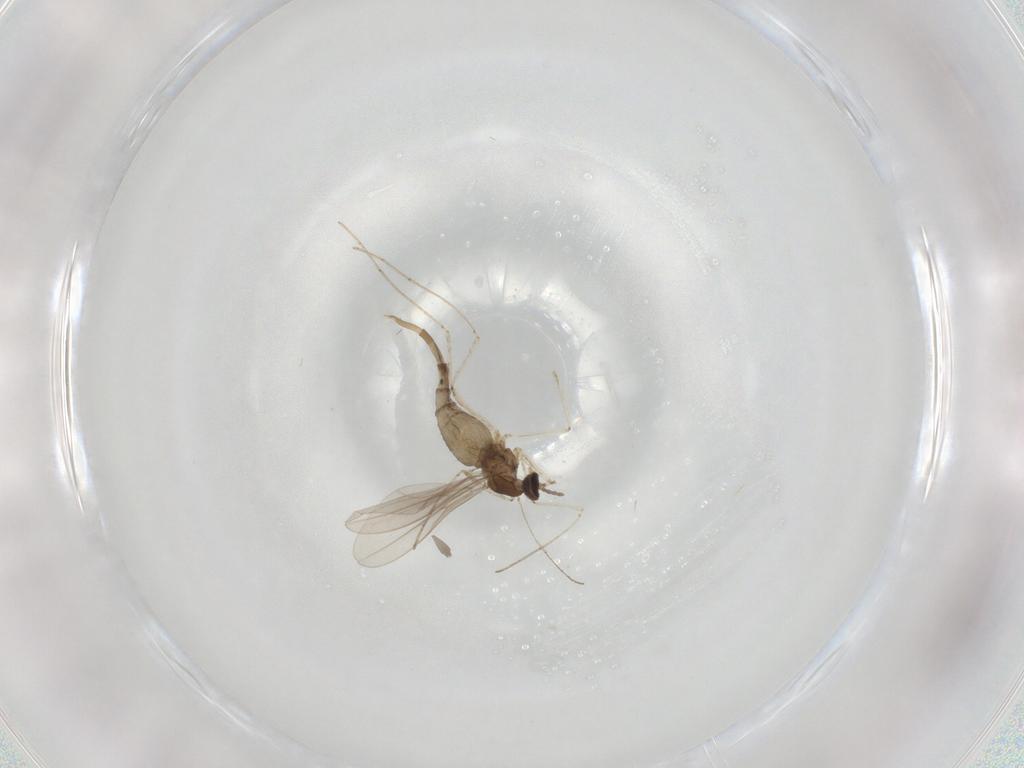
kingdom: Animalia
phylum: Arthropoda
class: Insecta
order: Diptera
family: Cecidomyiidae
